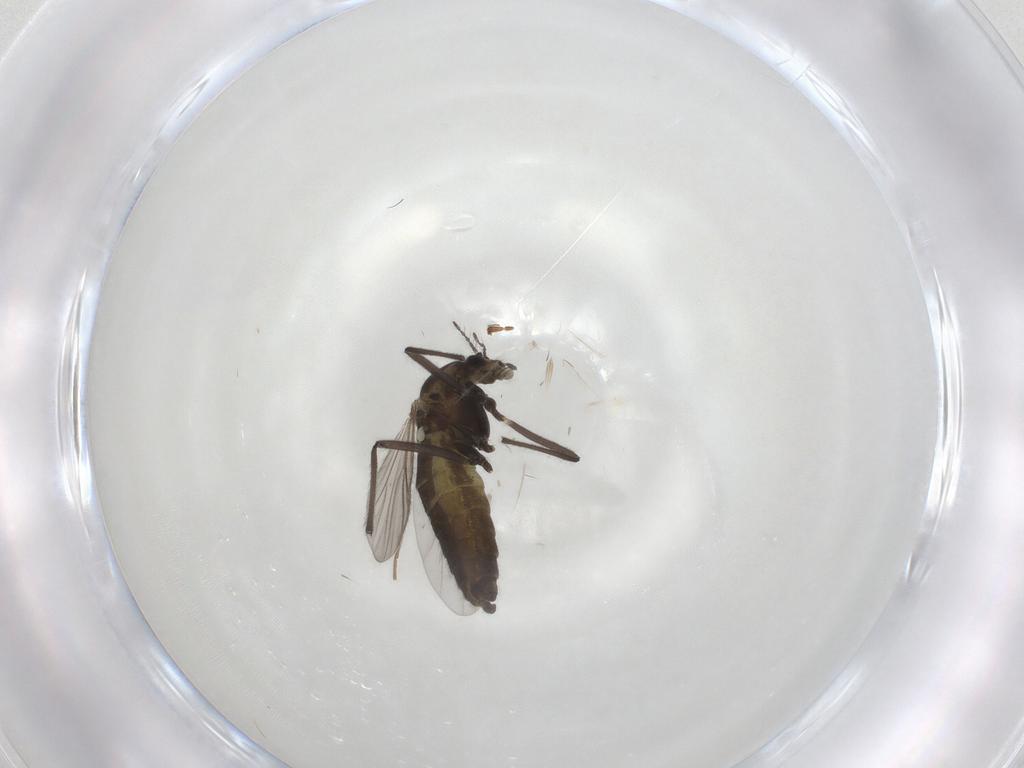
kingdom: Animalia
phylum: Arthropoda
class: Insecta
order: Diptera
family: Chironomidae
